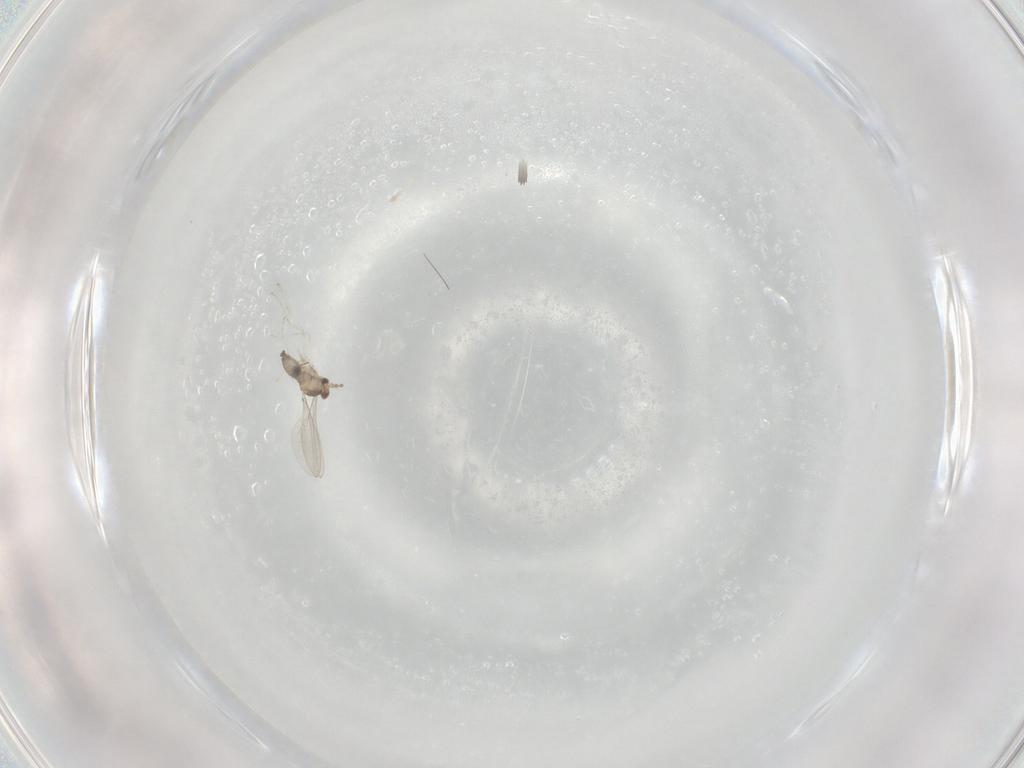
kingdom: Animalia
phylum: Arthropoda
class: Insecta
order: Diptera
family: Cecidomyiidae
